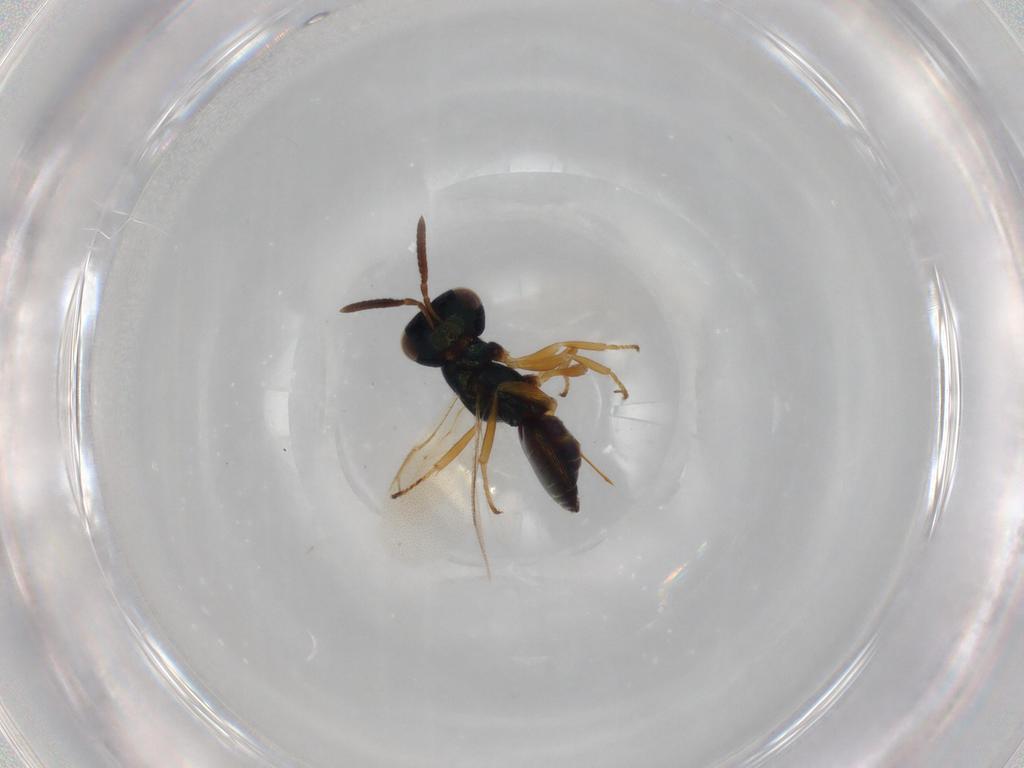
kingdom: Animalia
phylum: Arthropoda
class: Insecta
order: Hymenoptera
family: Pteromalidae
